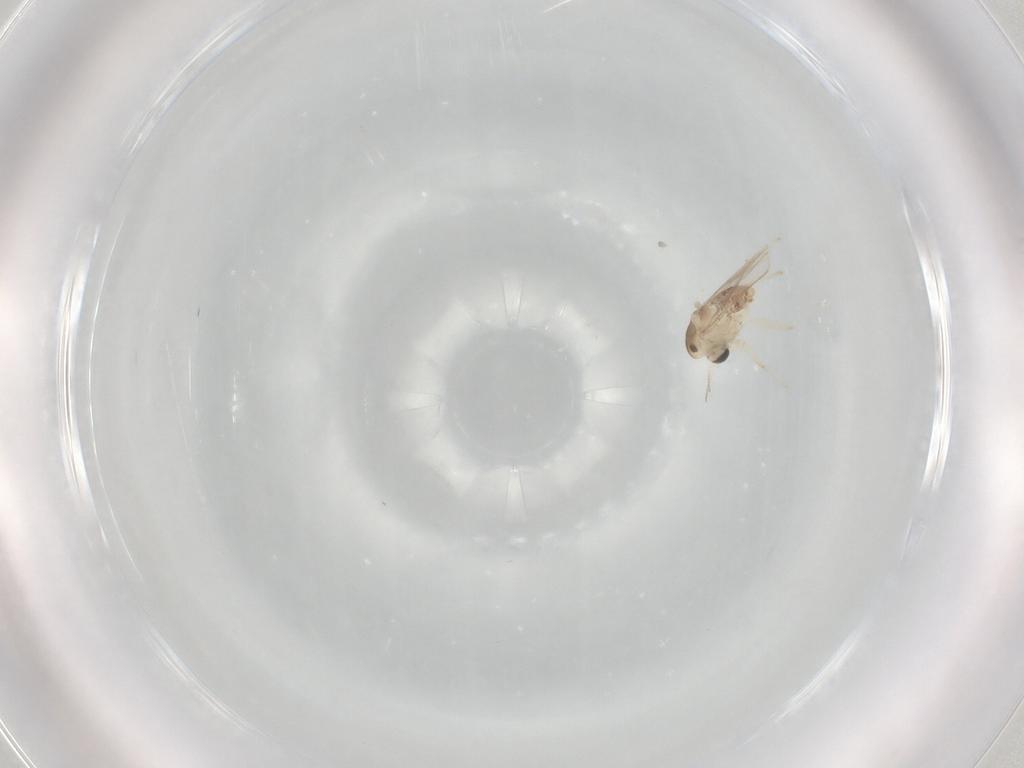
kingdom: Animalia
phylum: Arthropoda
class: Insecta
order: Diptera
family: Chironomidae
